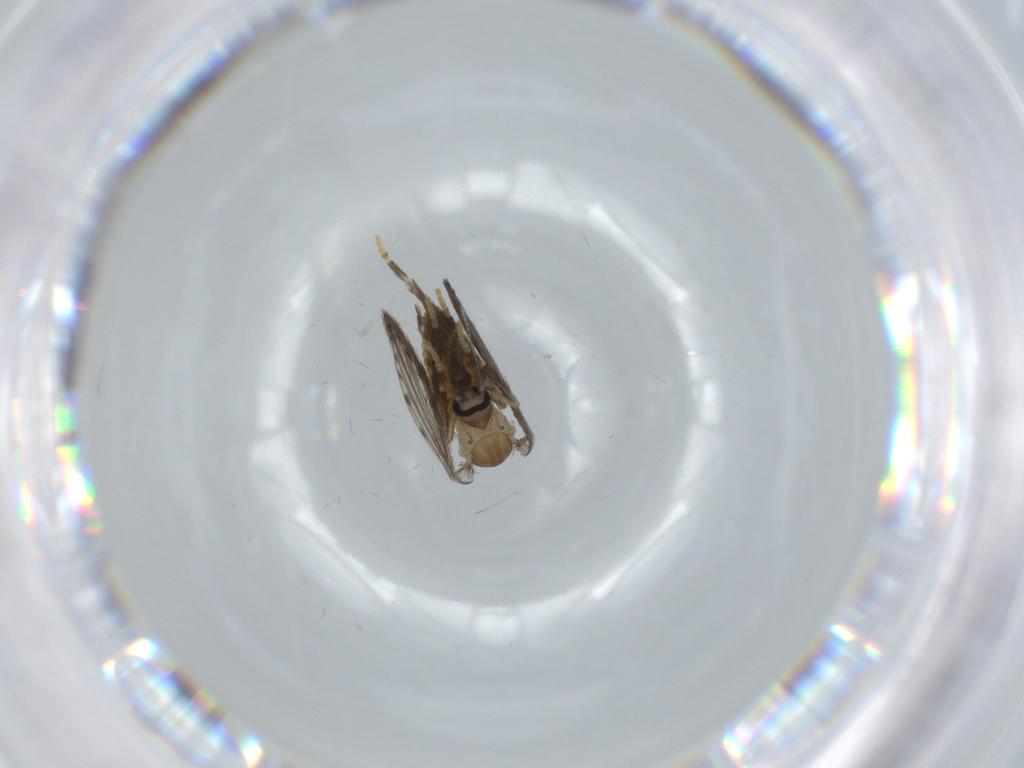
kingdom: Animalia
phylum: Arthropoda
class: Insecta
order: Diptera
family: Psychodidae
